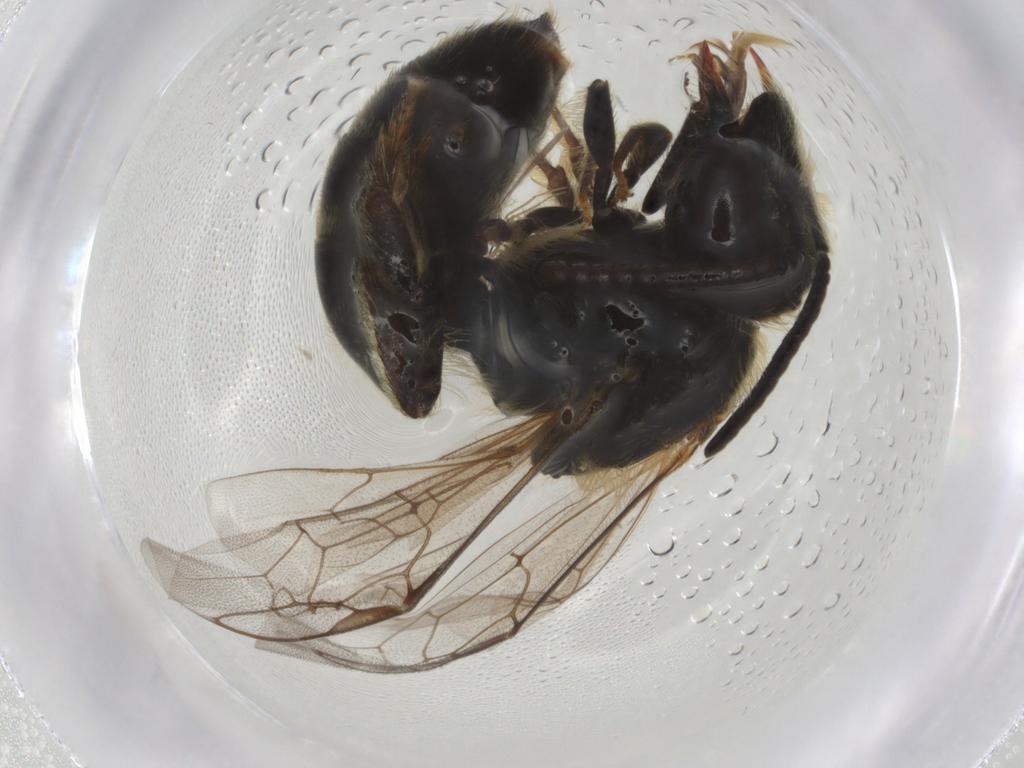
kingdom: Animalia
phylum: Arthropoda
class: Insecta
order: Hymenoptera
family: Halictidae
